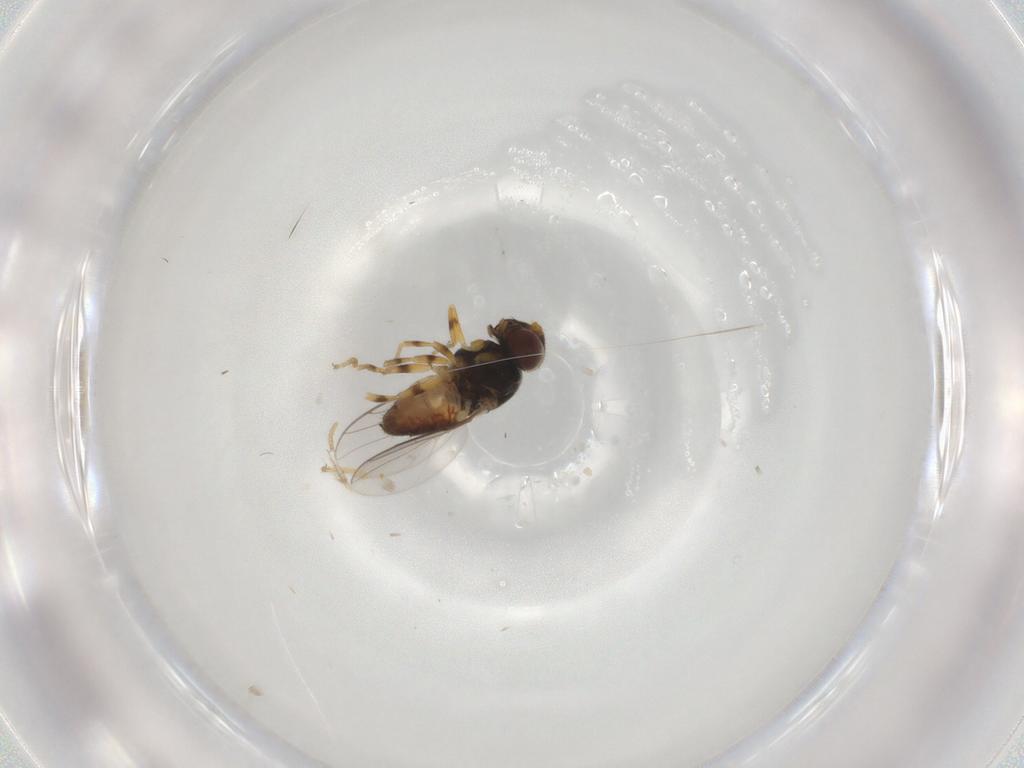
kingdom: Animalia
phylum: Arthropoda
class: Insecta
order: Diptera
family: Chloropidae
